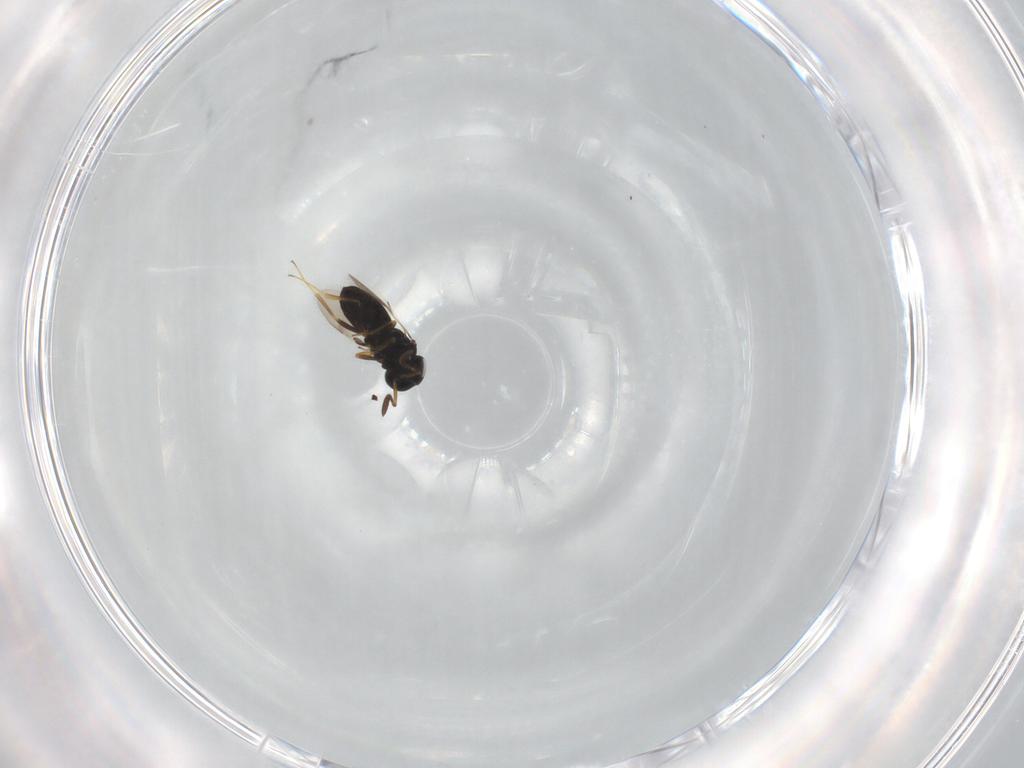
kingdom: Animalia
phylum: Arthropoda
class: Insecta
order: Hymenoptera
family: Scelionidae
